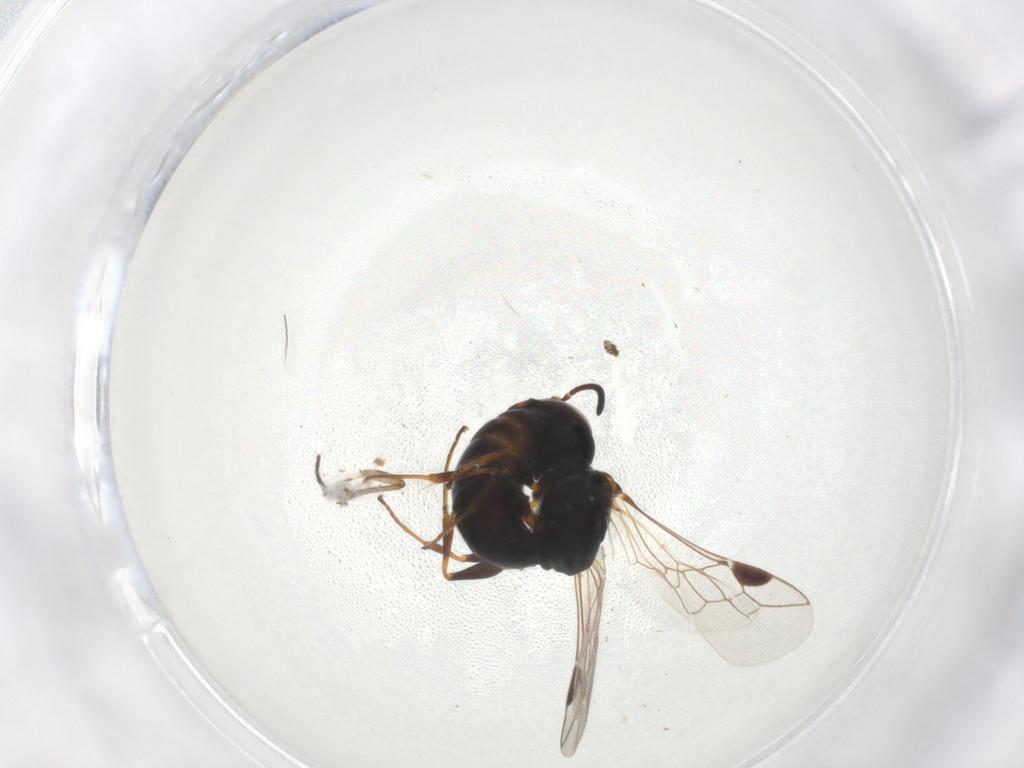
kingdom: Animalia
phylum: Arthropoda
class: Insecta
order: Hymenoptera
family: Pemphredonidae
